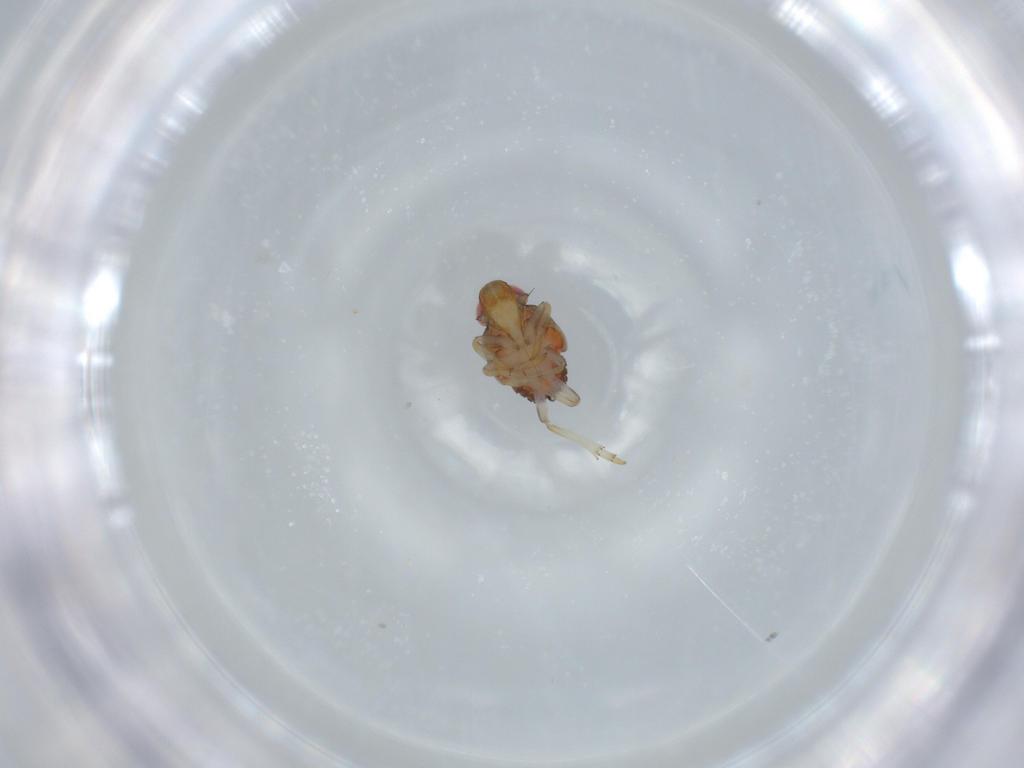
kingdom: Animalia
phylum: Arthropoda
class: Insecta
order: Hemiptera
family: Issidae
